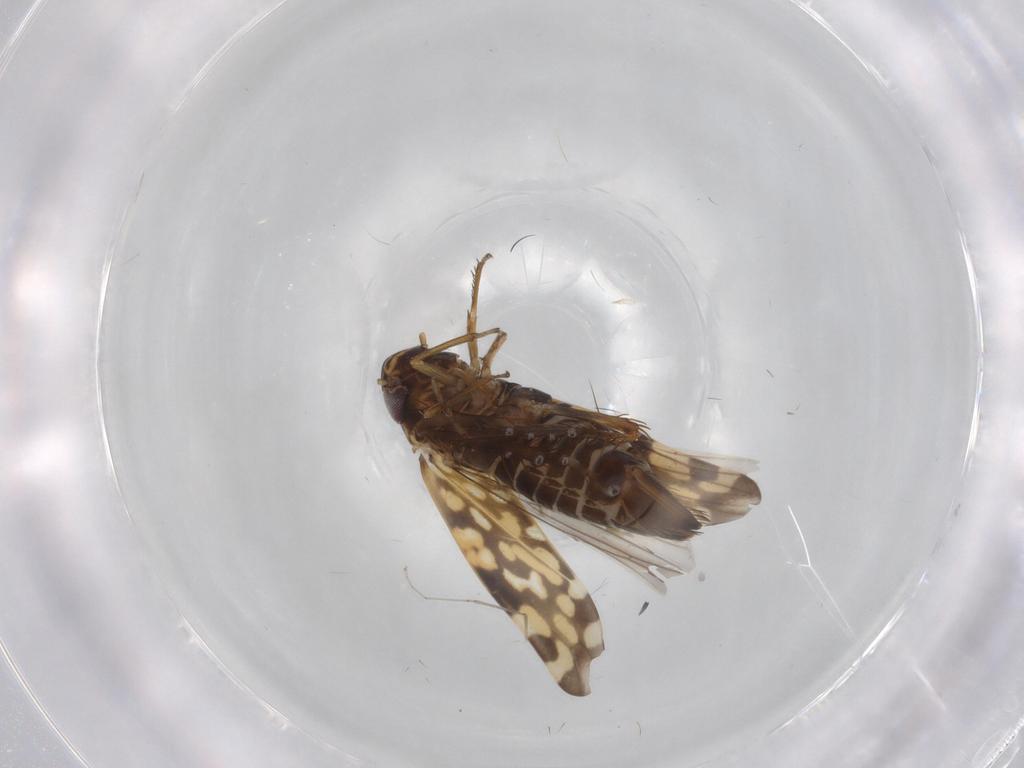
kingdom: Animalia
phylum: Arthropoda
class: Insecta
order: Hemiptera
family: Cicadellidae
